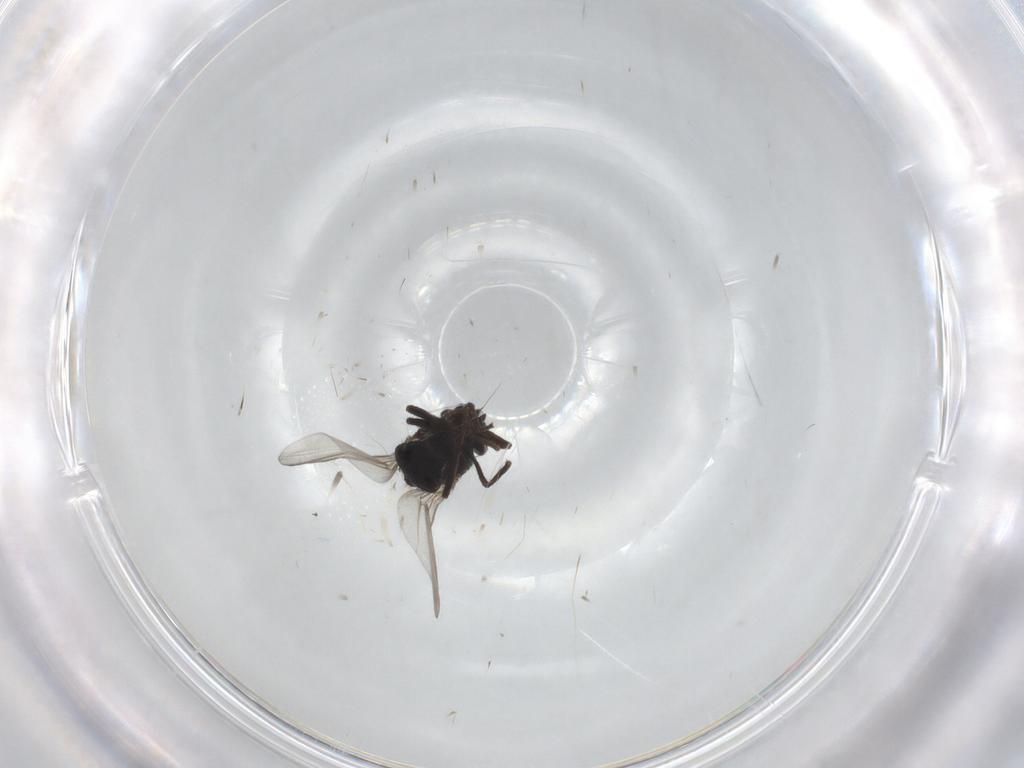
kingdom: Animalia
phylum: Arthropoda
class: Insecta
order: Diptera
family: Agromyzidae
